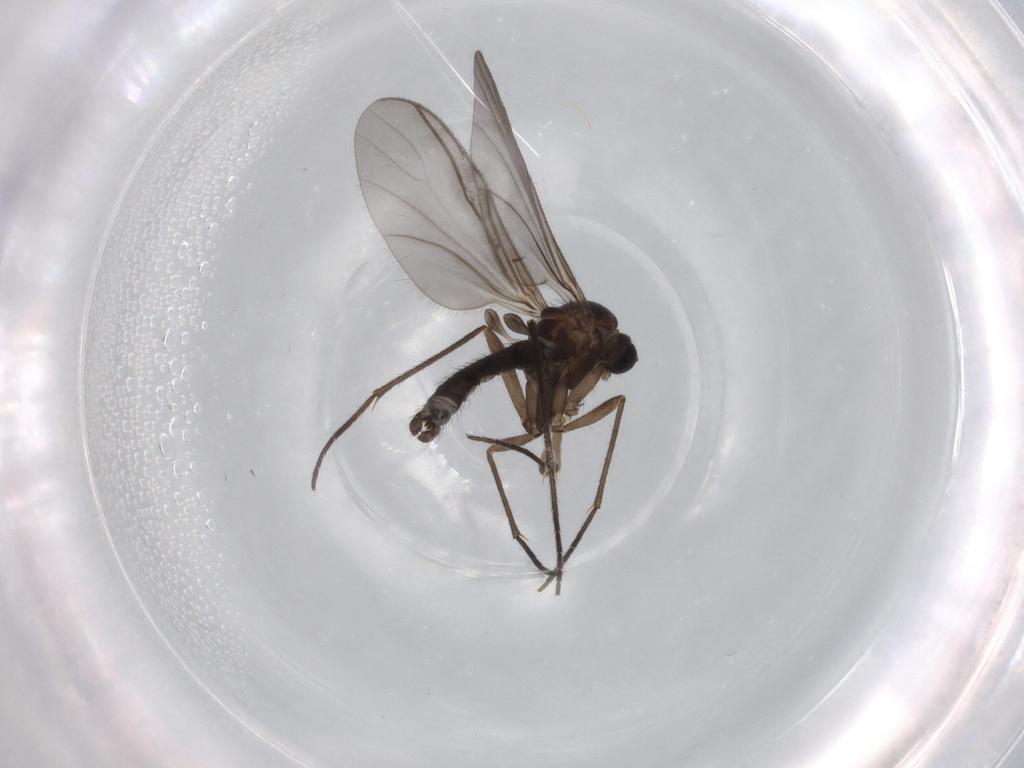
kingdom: Animalia
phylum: Arthropoda
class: Insecta
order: Diptera
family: Sciaridae
